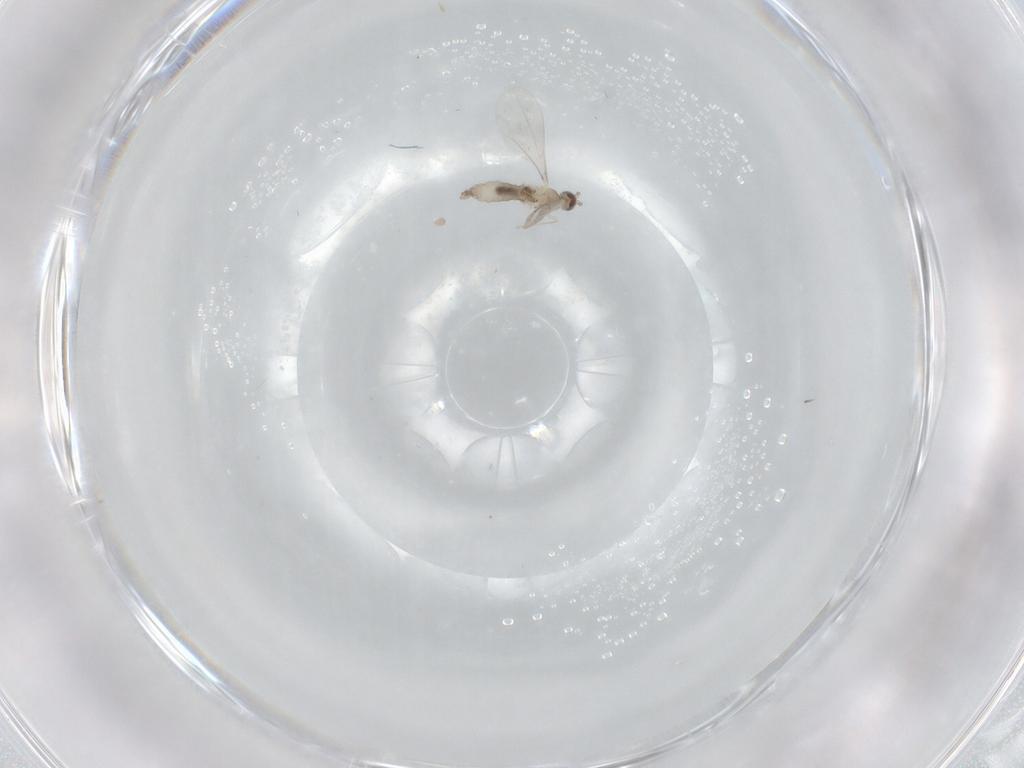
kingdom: Animalia
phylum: Arthropoda
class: Insecta
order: Diptera
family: Cecidomyiidae
